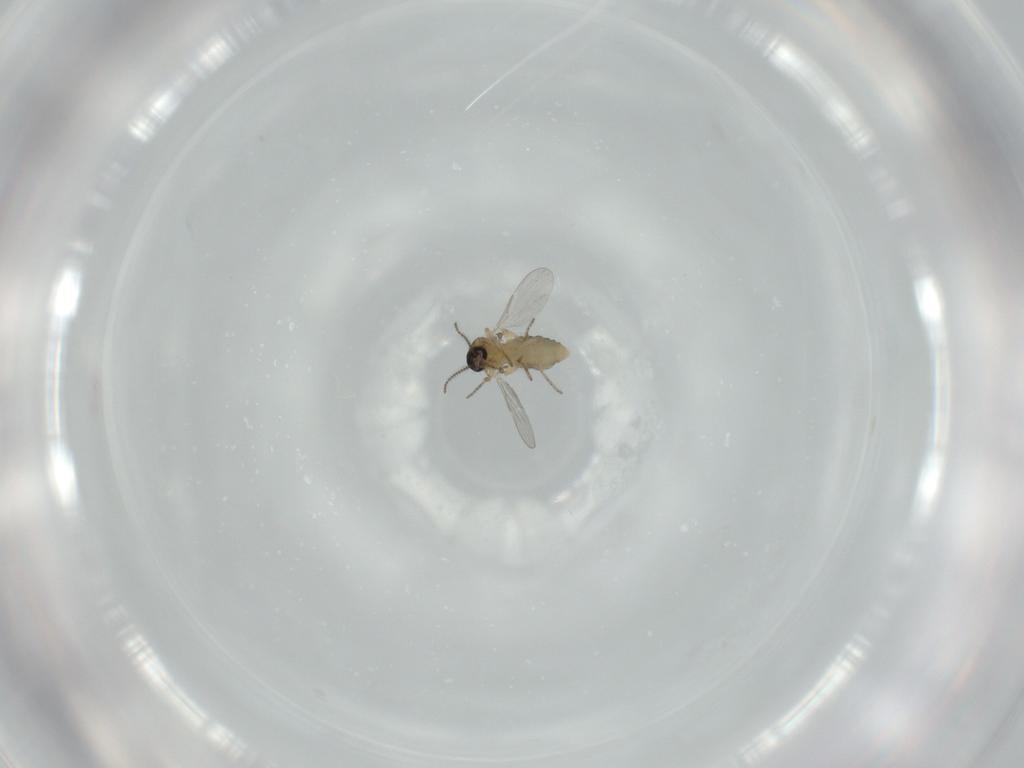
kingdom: Animalia
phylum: Arthropoda
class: Insecta
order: Diptera
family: Ceratopogonidae
